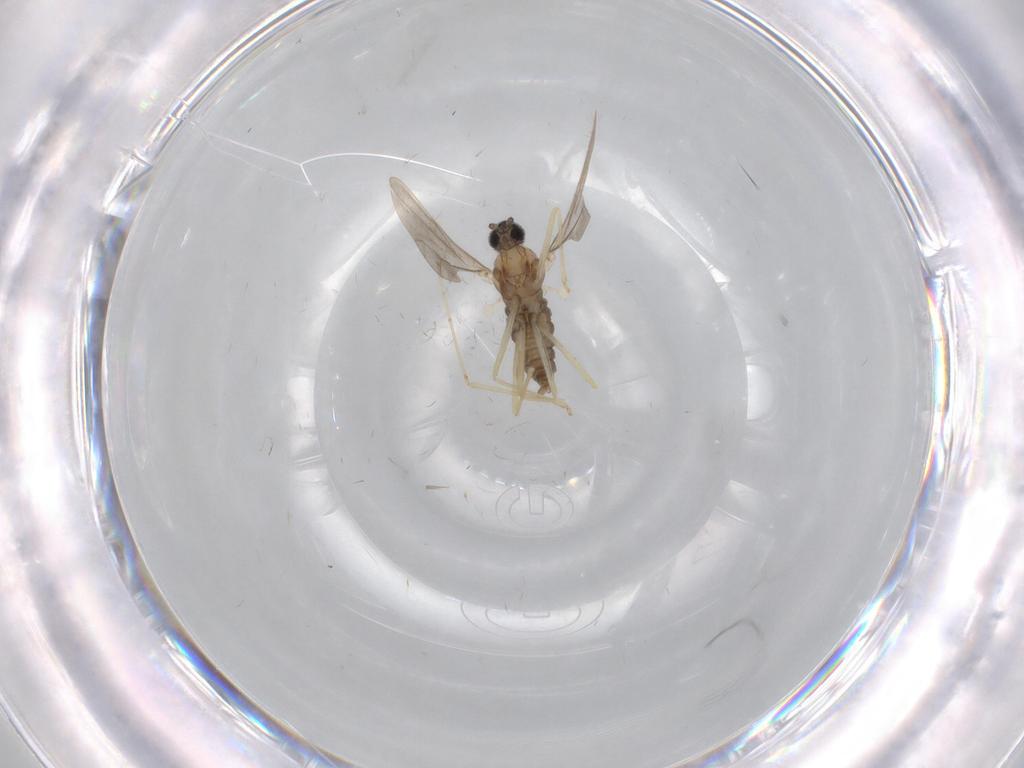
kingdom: Animalia
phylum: Arthropoda
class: Insecta
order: Diptera
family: Cecidomyiidae
